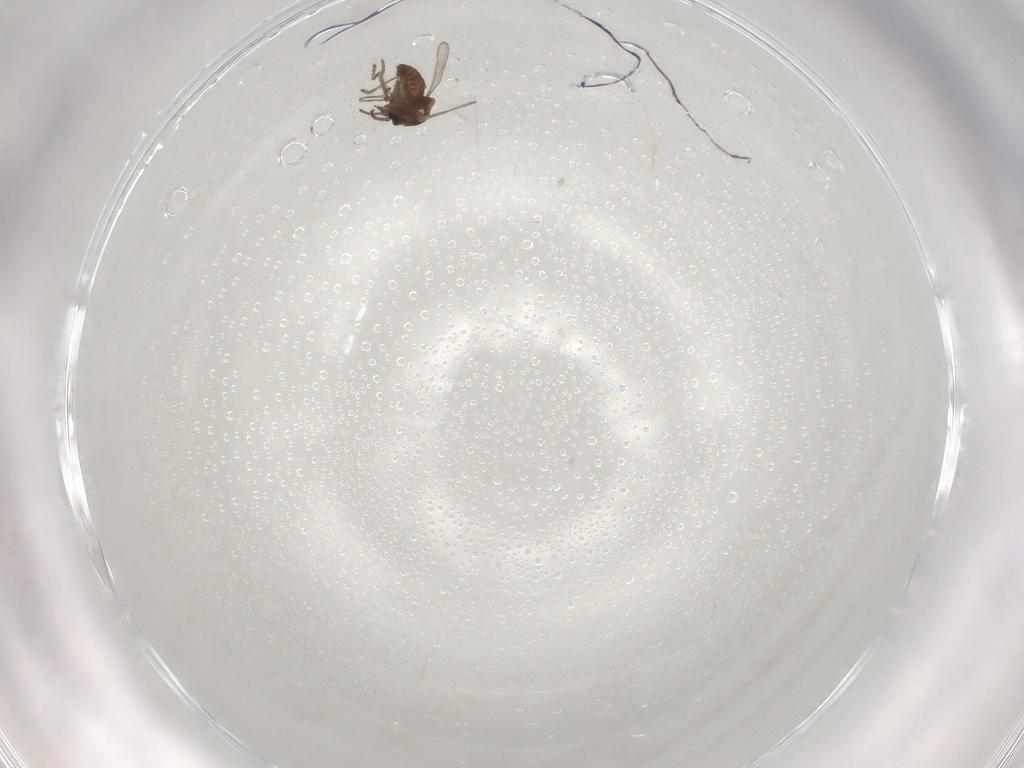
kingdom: Animalia
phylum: Arthropoda
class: Insecta
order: Diptera
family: Ceratopogonidae
